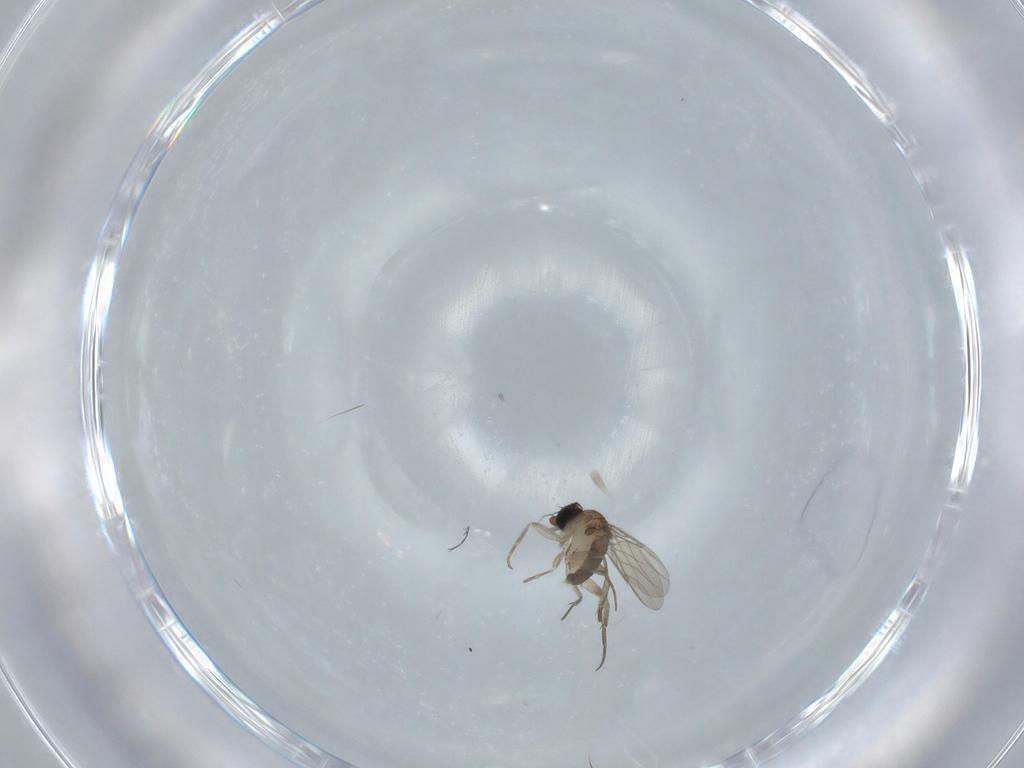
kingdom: Animalia
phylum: Arthropoda
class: Insecta
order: Diptera
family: Phoridae
